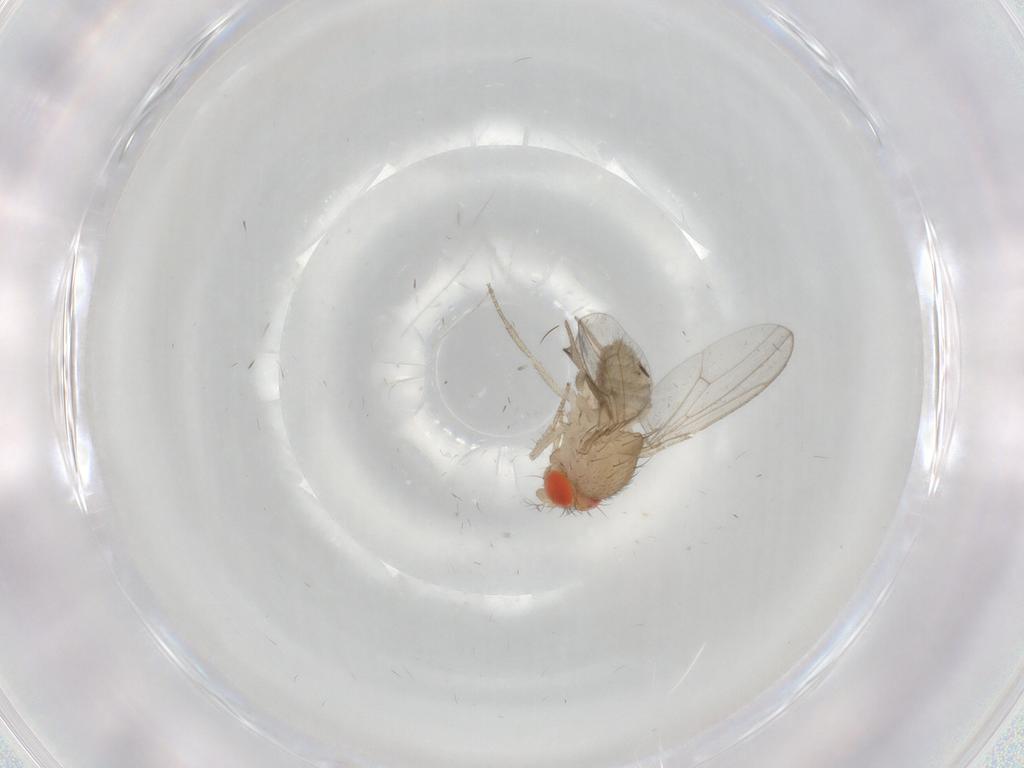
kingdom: Animalia
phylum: Arthropoda
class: Insecta
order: Diptera
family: Drosophilidae
